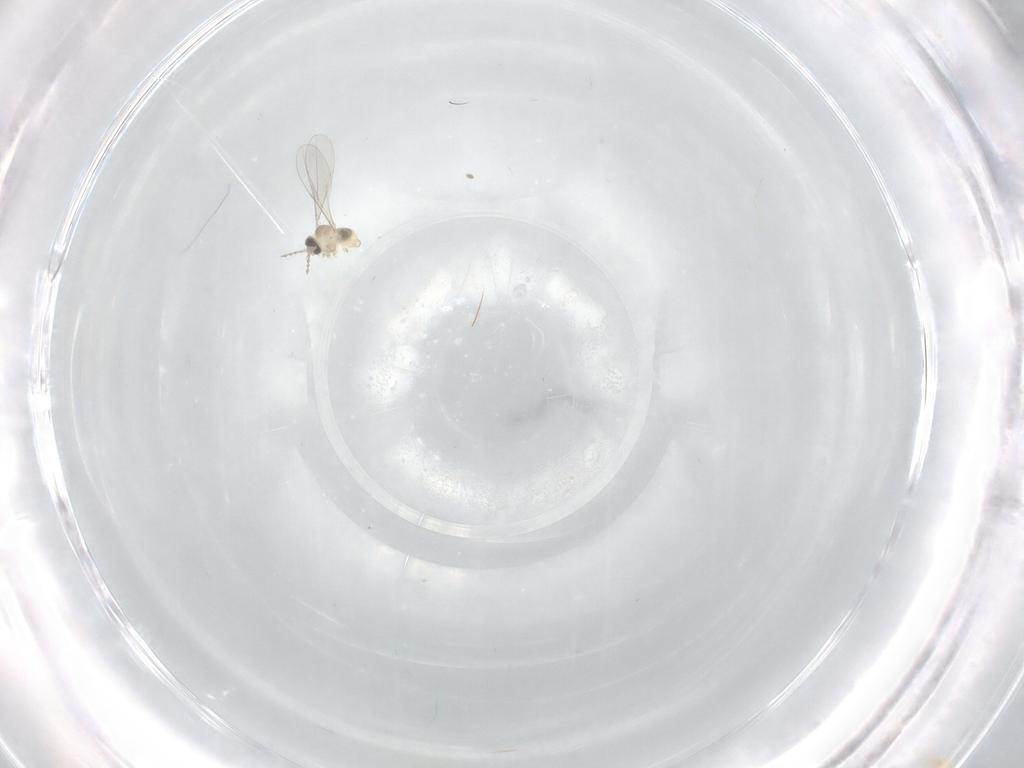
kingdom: Animalia
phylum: Arthropoda
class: Insecta
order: Diptera
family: Cecidomyiidae
